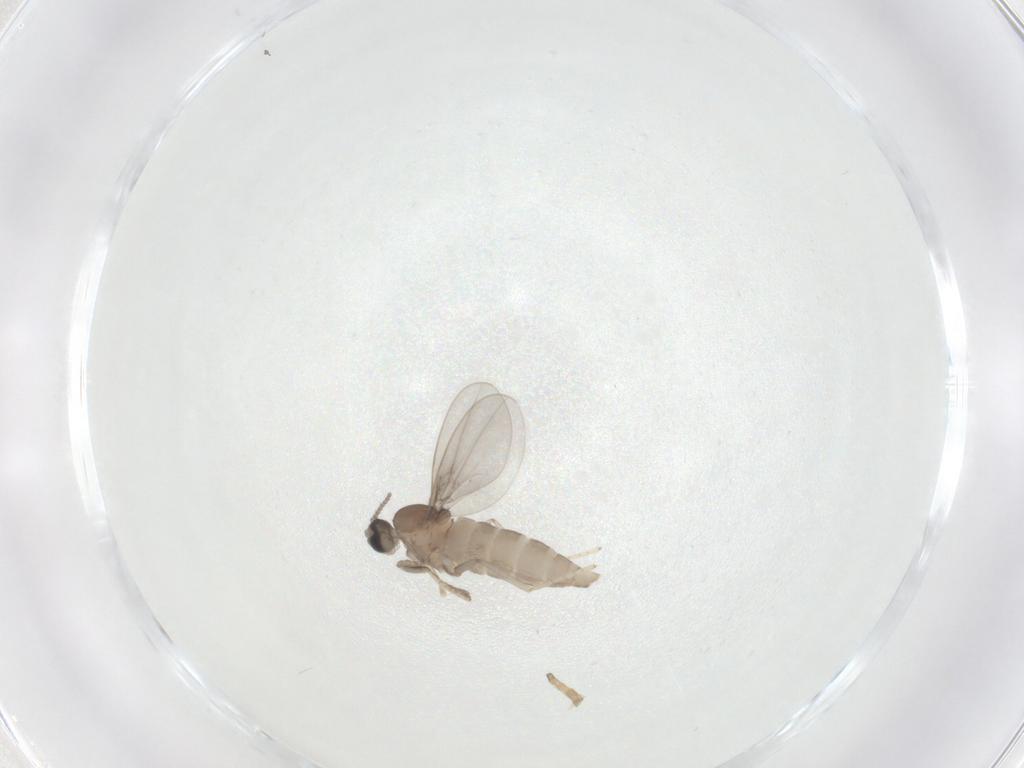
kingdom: Animalia
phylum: Arthropoda
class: Insecta
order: Diptera
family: Cecidomyiidae
